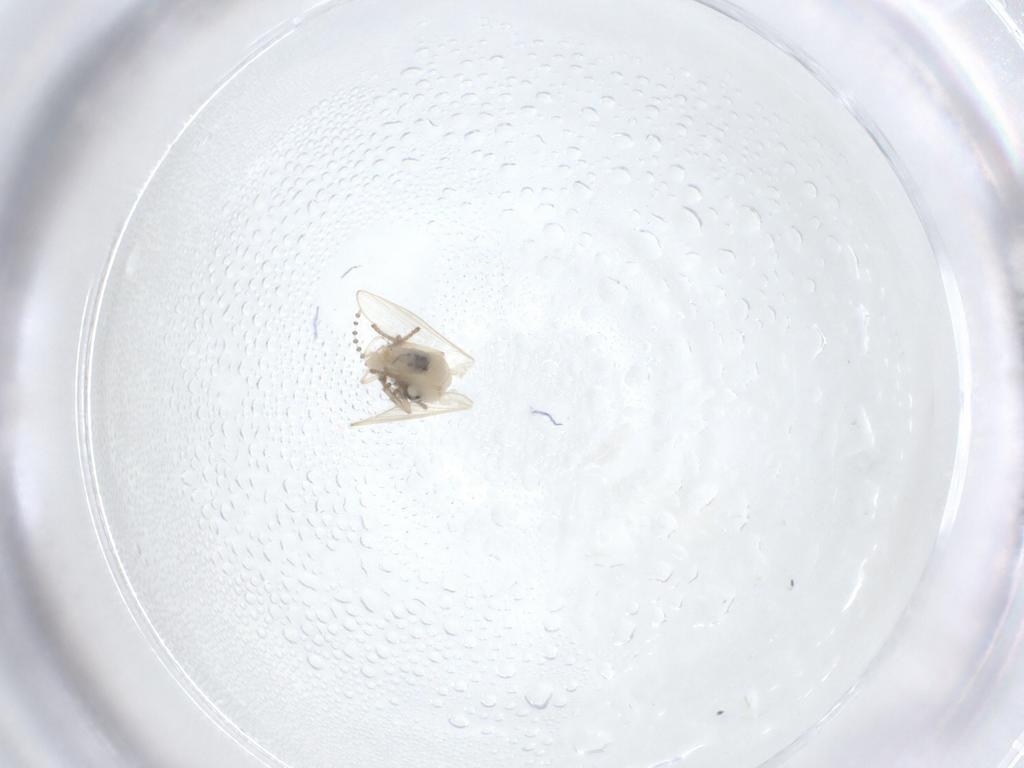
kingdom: Animalia
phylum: Arthropoda
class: Insecta
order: Diptera
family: Psychodidae
